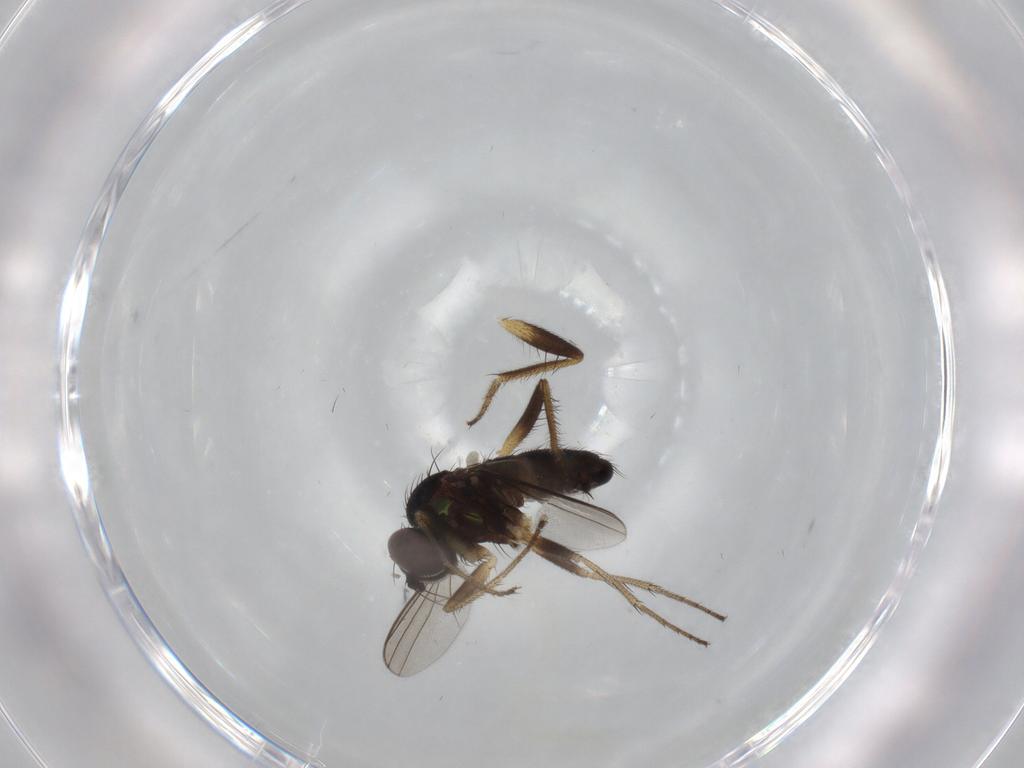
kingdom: Animalia
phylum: Arthropoda
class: Insecta
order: Diptera
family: Dolichopodidae
